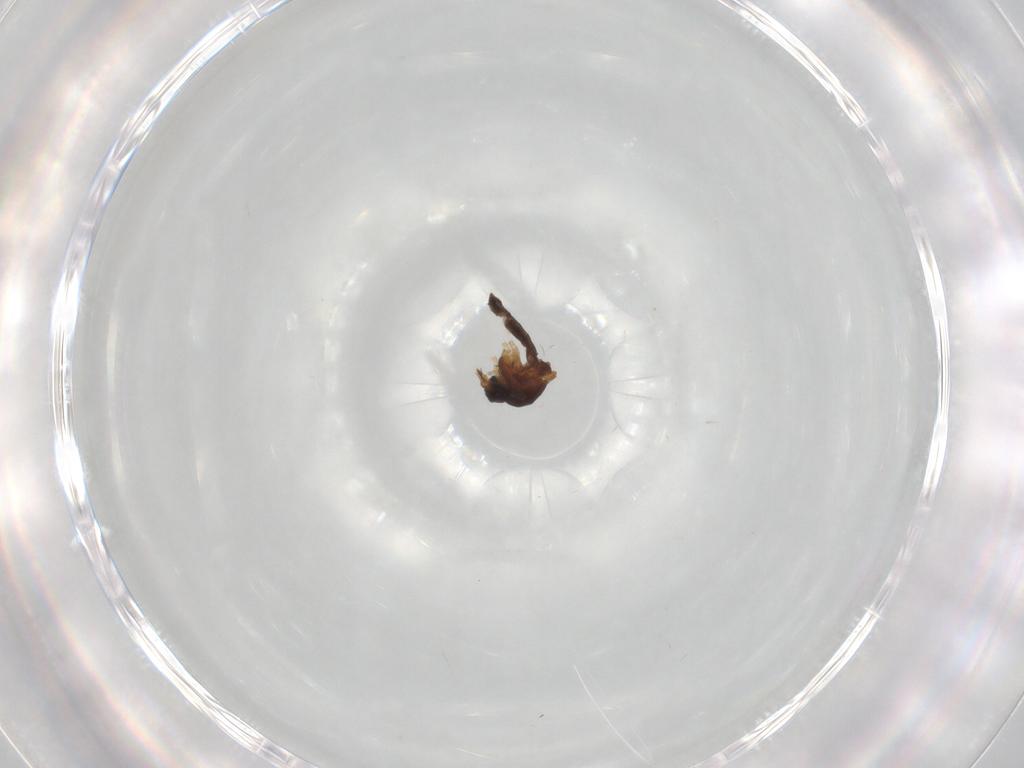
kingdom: Animalia
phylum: Arthropoda
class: Insecta
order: Diptera
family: Ceratopogonidae
